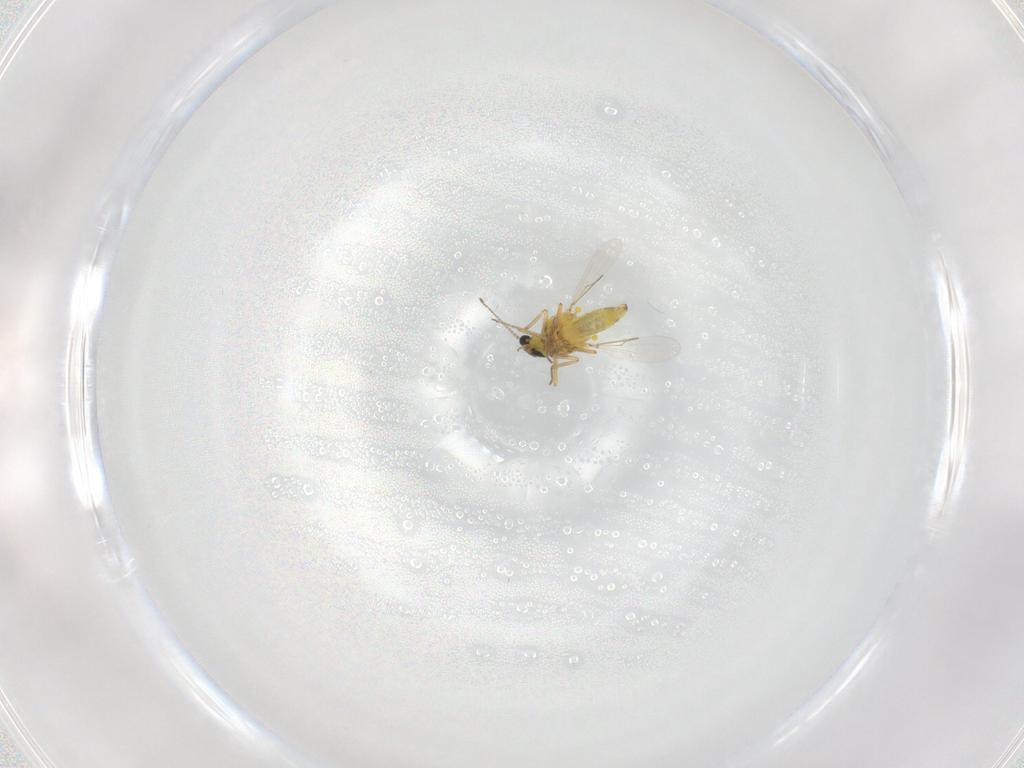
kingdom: Animalia
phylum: Arthropoda
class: Insecta
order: Diptera
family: Ceratopogonidae
